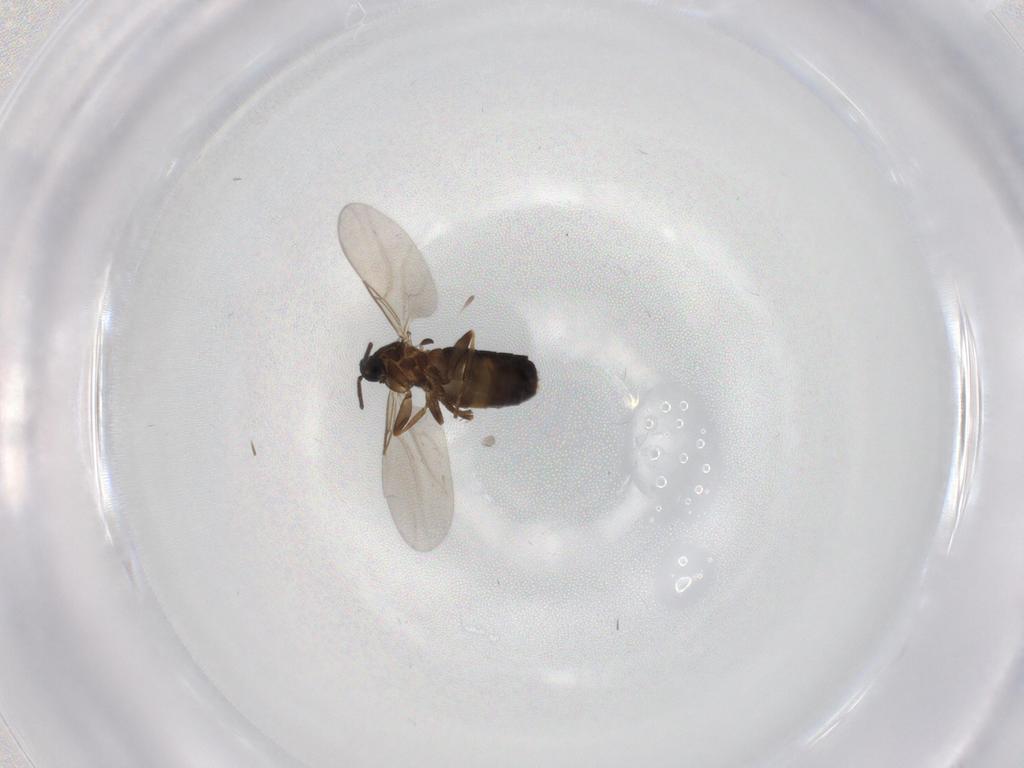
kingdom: Animalia
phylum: Arthropoda
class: Insecta
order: Diptera
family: Scatopsidae
